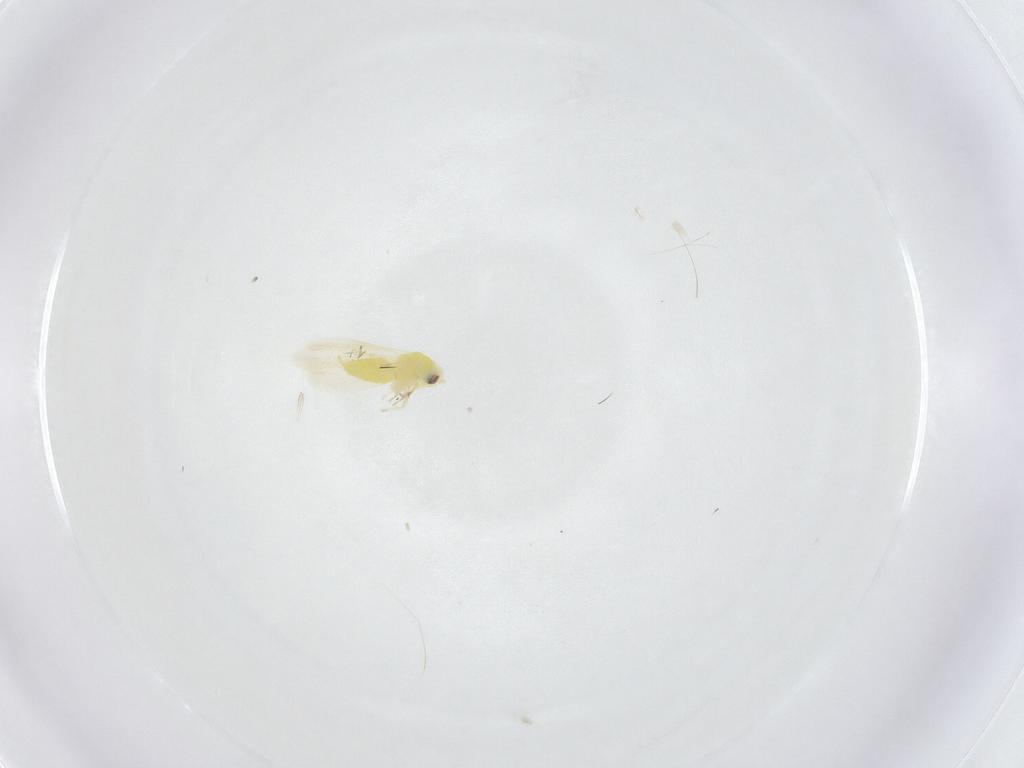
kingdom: Animalia
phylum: Arthropoda
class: Insecta
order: Hemiptera
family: Aleyrodidae
